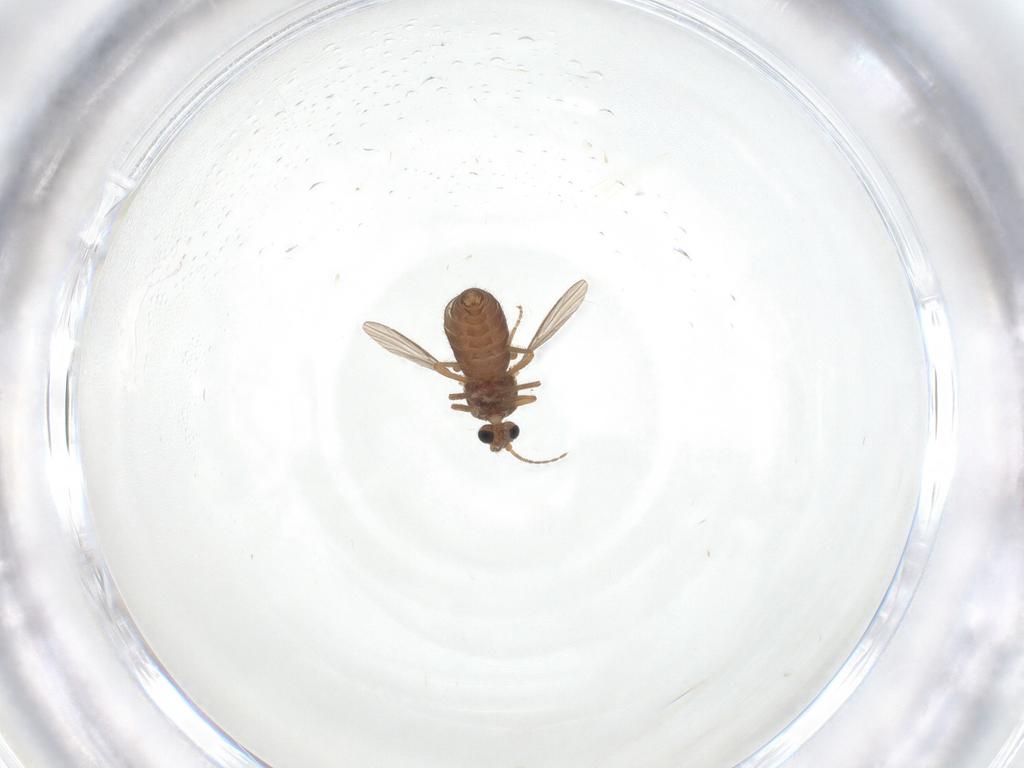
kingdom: Animalia
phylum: Arthropoda
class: Insecta
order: Diptera
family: Ceratopogonidae
